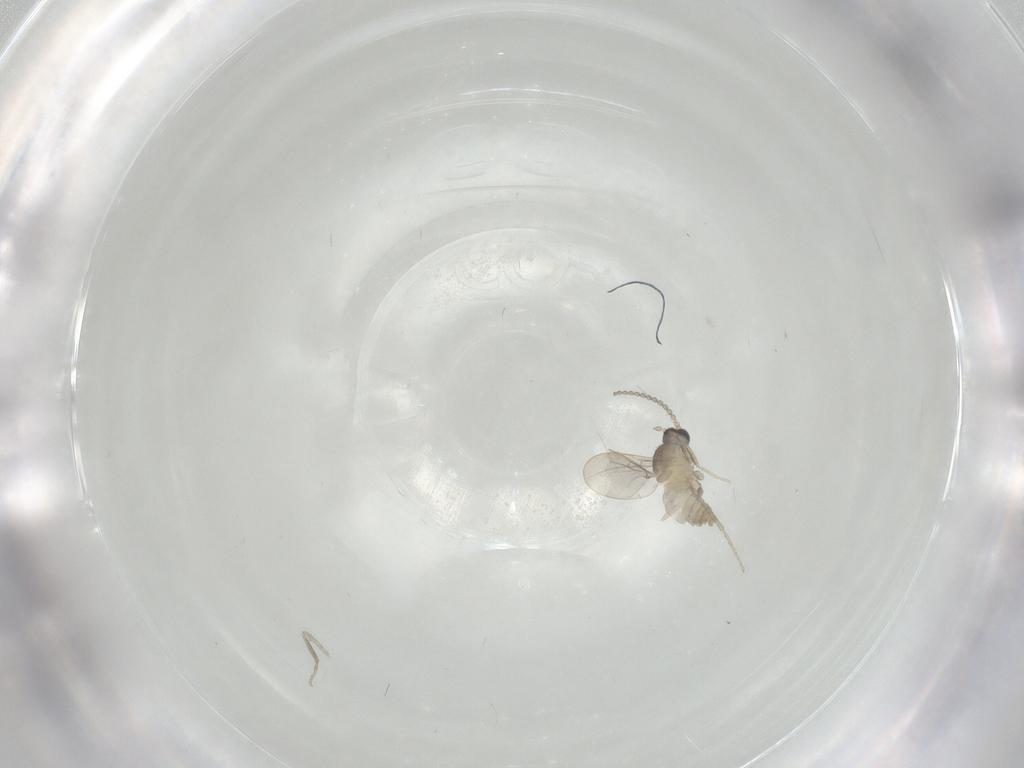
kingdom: Animalia
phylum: Arthropoda
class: Insecta
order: Diptera
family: Cecidomyiidae
